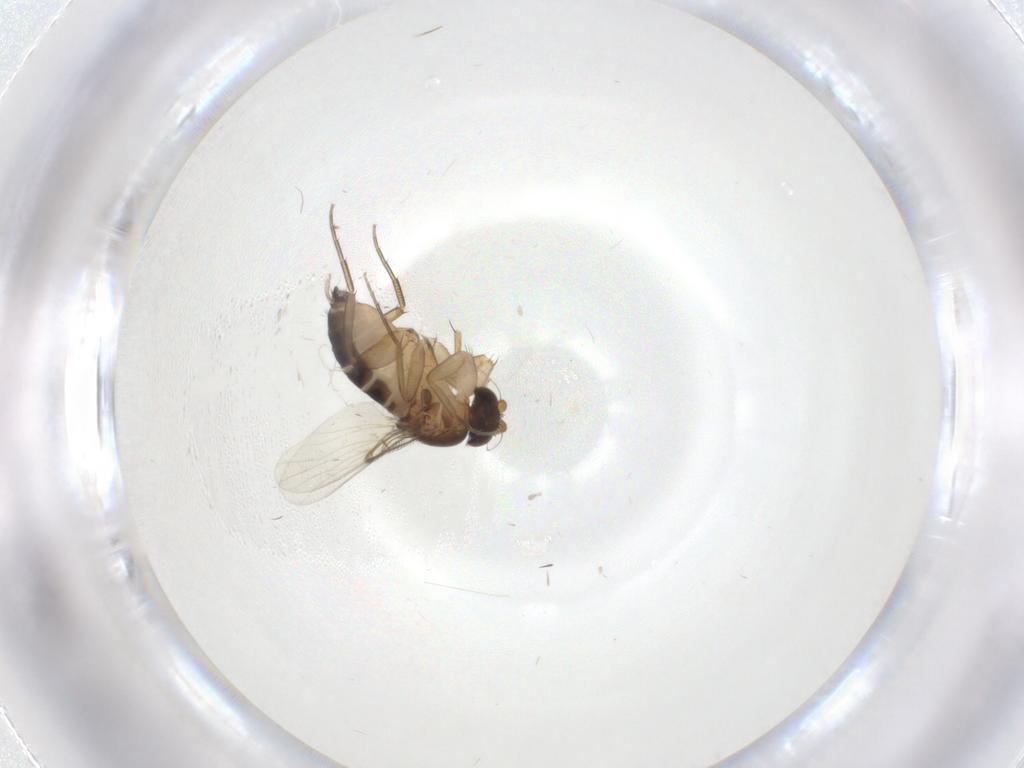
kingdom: Animalia
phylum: Arthropoda
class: Insecta
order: Diptera
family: Phoridae
